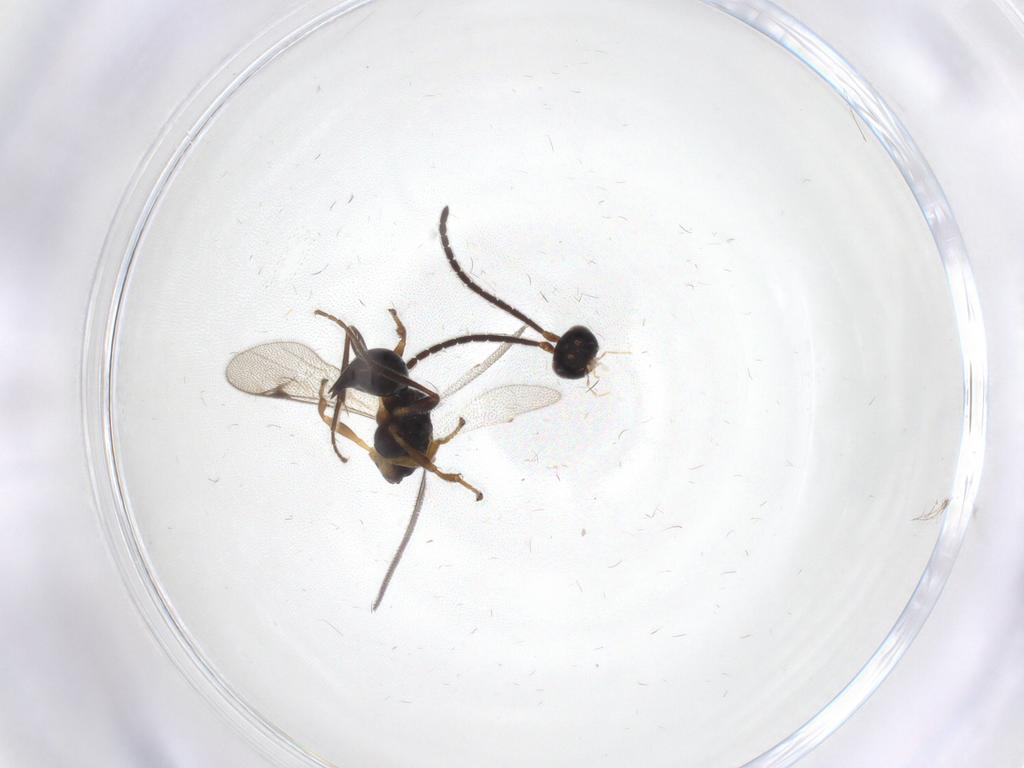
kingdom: Animalia
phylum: Arthropoda
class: Insecta
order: Hymenoptera
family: Proctotrupidae
